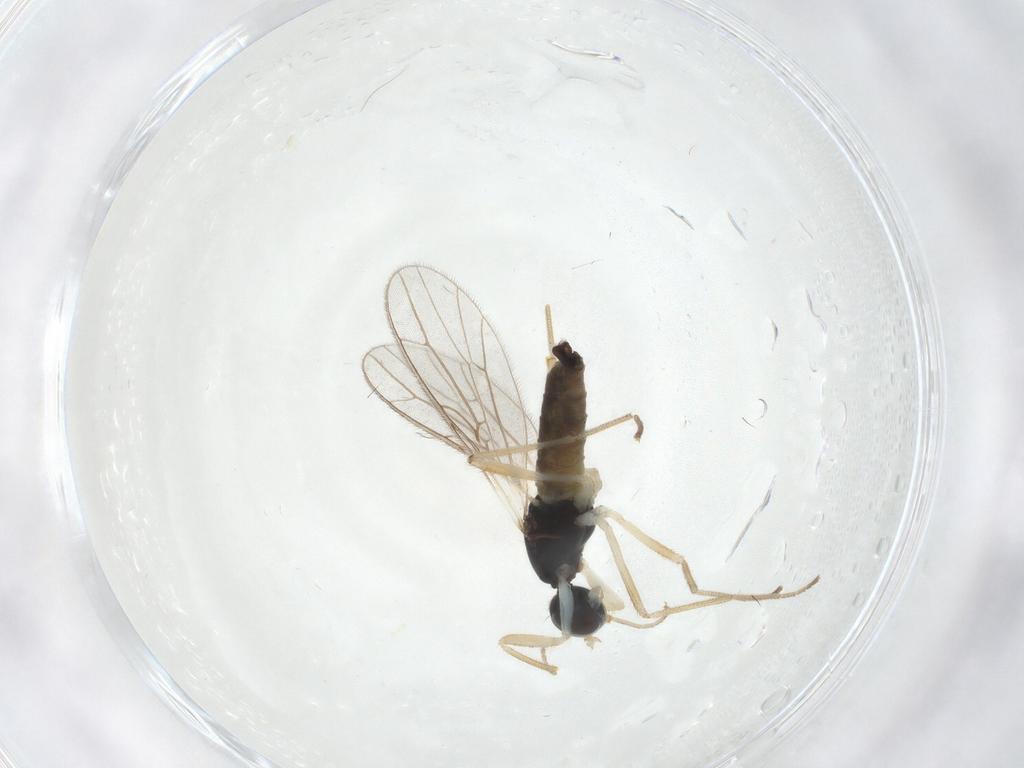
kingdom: Animalia
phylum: Arthropoda
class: Insecta
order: Diptera
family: Empididae
